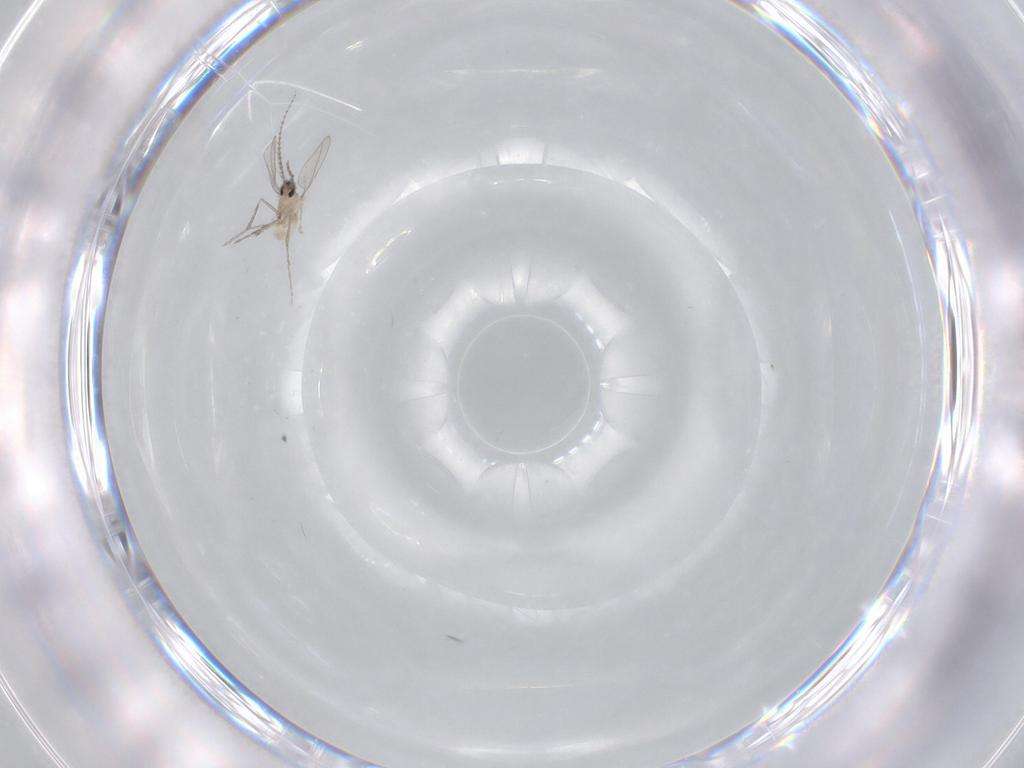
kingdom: Animalia
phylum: Arthropoda
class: Insecta
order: Diptera
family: Cecidomyiidae
